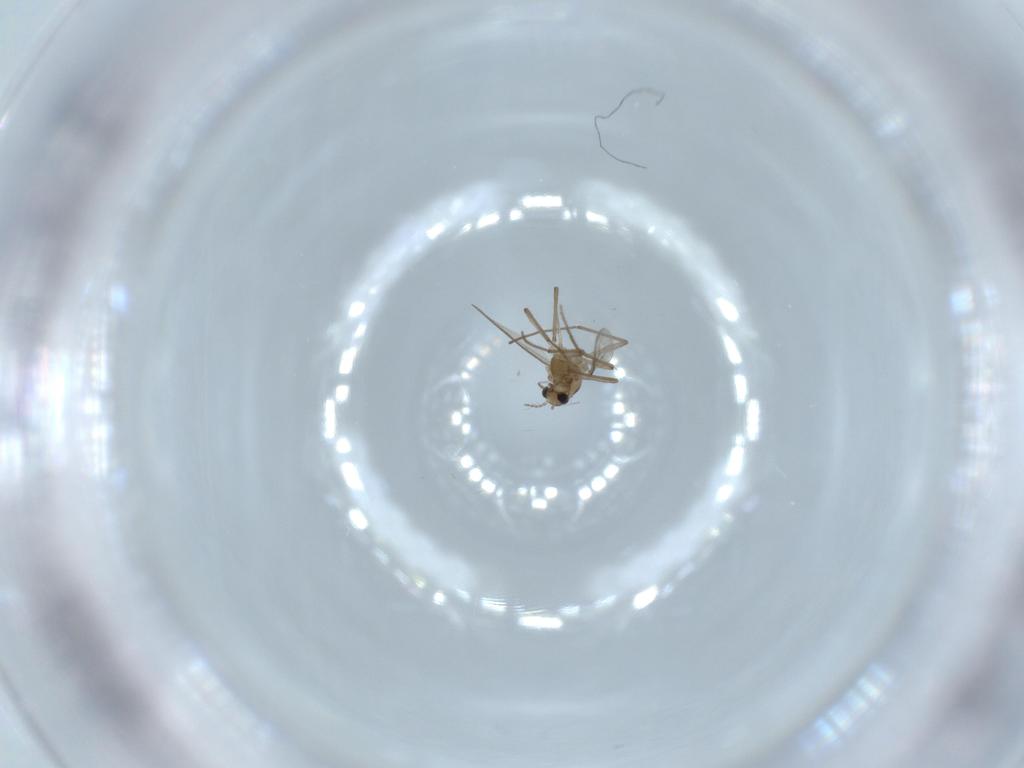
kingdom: Animalia
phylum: Arthropoda
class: Insecta
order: Diptera
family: Chironomidae
